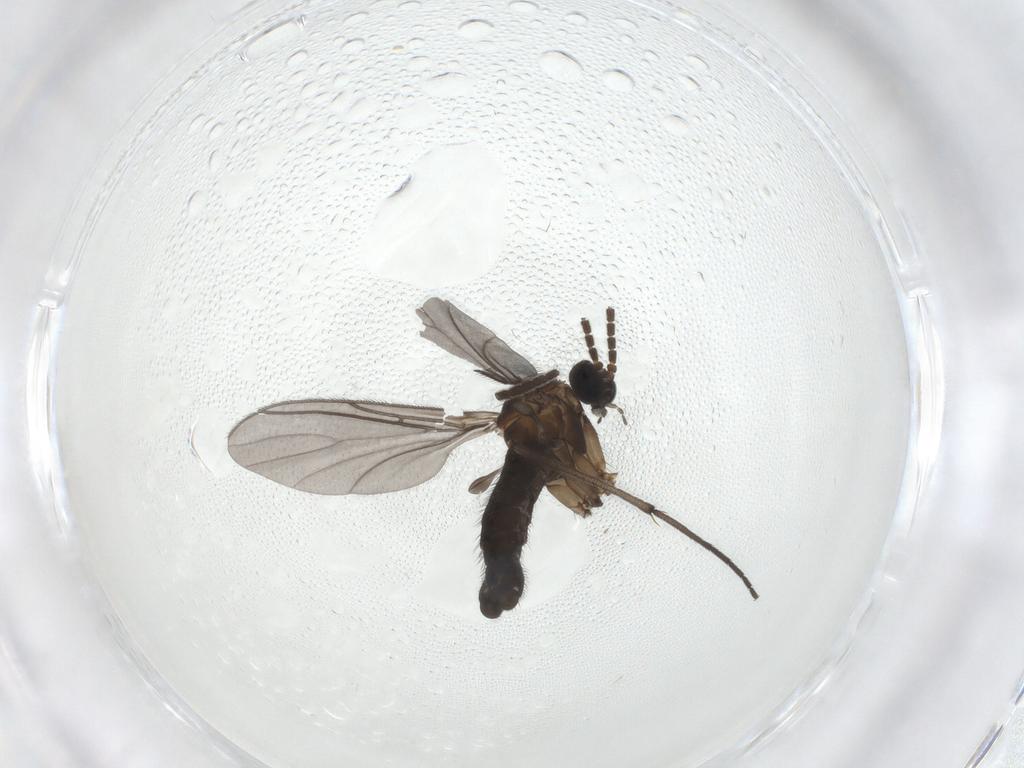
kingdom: Animalia
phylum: Arthropoda
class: Insecta
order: Diptera
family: Sciaridae
